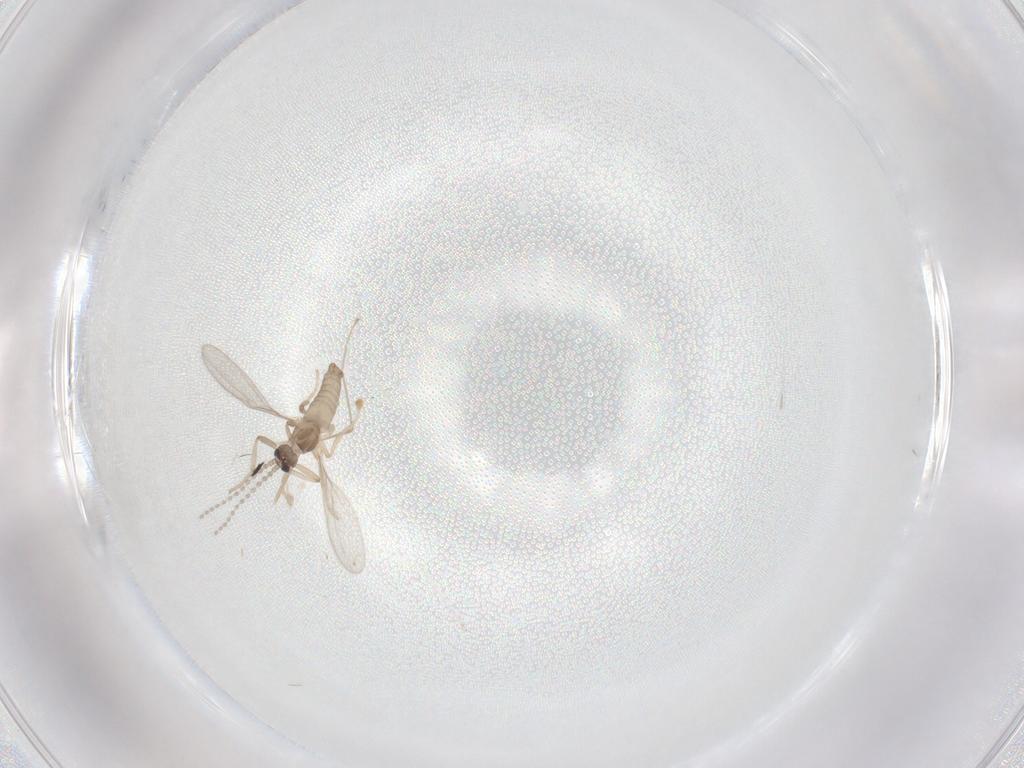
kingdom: Animalia
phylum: Arthropoda
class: Insecta
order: Diptera
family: Cecidomyiidae
